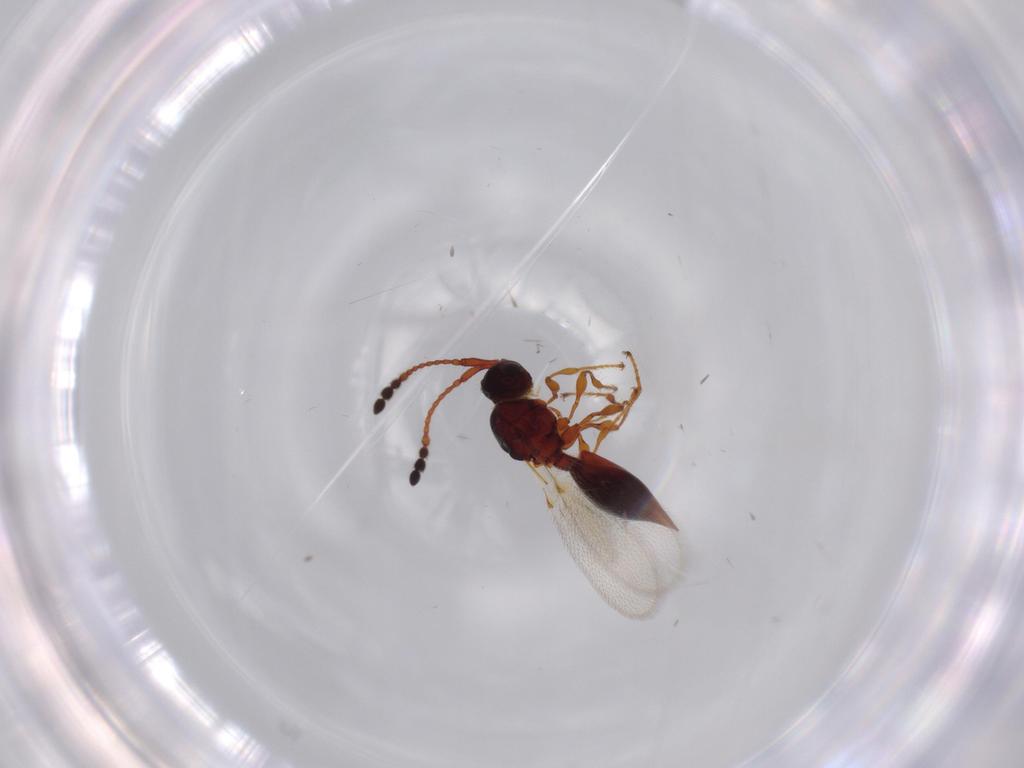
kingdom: Animalia
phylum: Arthropoda
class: Insecta
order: Hymenoptera
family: Diapriidae
